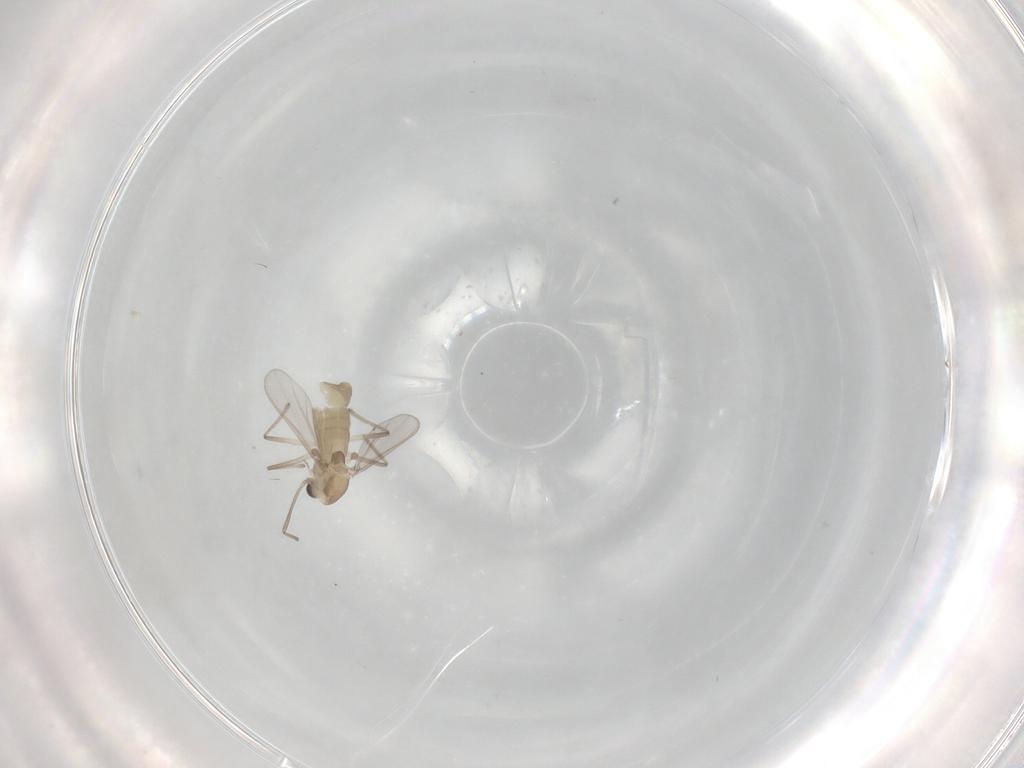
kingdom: Animalia
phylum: Arthropoda
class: Insecta
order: Diptera
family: Chironomidae
